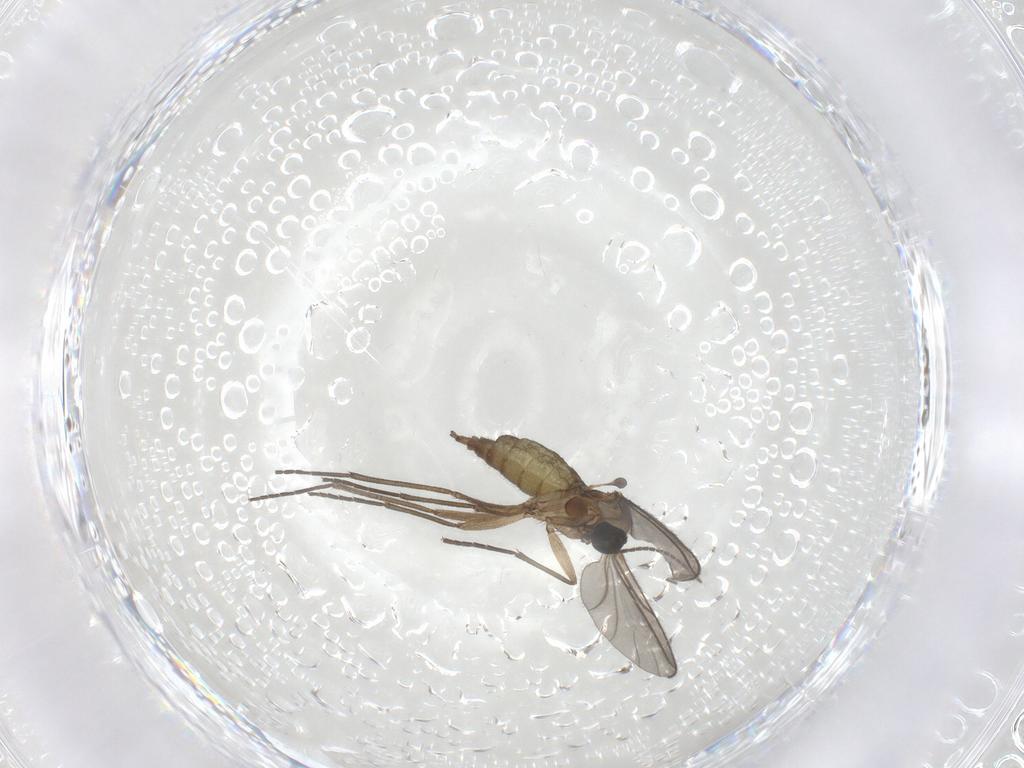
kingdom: Animalia
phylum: Arthropoda
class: Insecta
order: Diptera
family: Sciaridae
